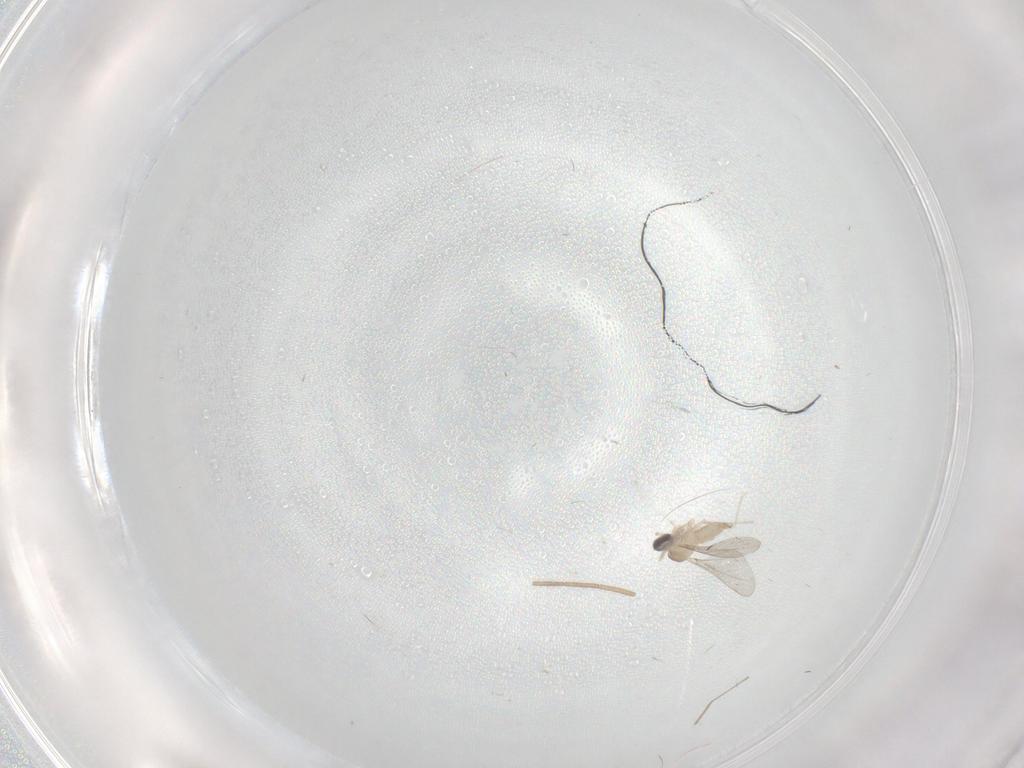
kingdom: Animalia
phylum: Arthropoda
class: Insecta
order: Diptera
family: Cecidomyiidae
